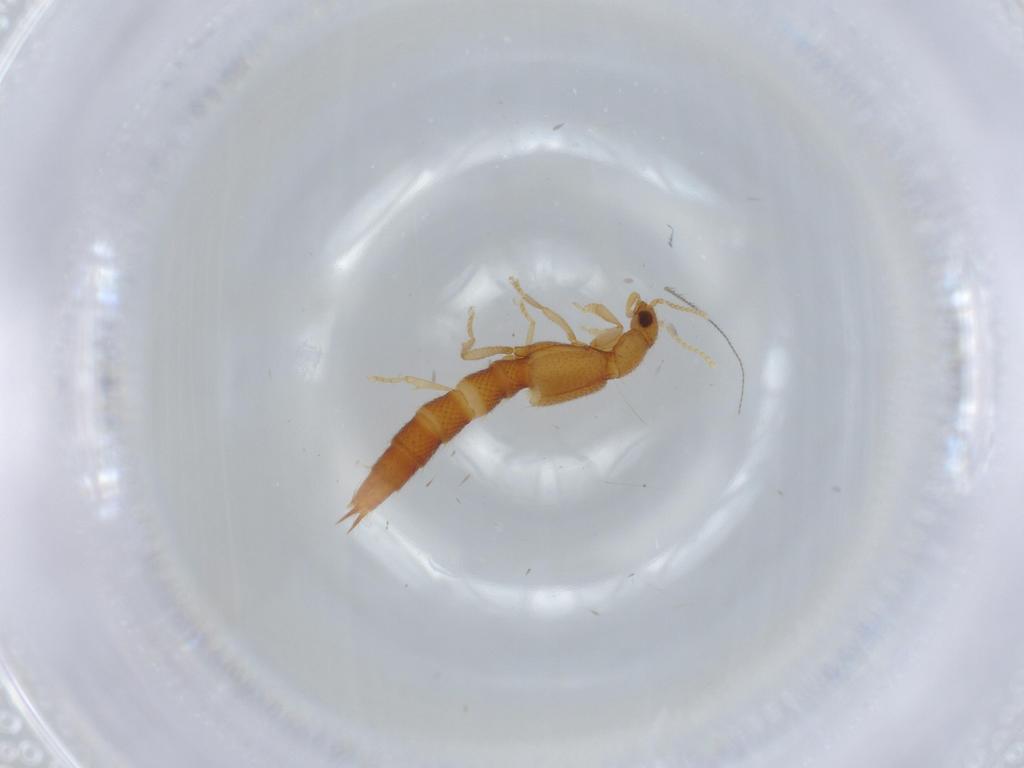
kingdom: Animalia
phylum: Arthropoda
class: Insecta
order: Coleoptera
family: Staphylinidae
